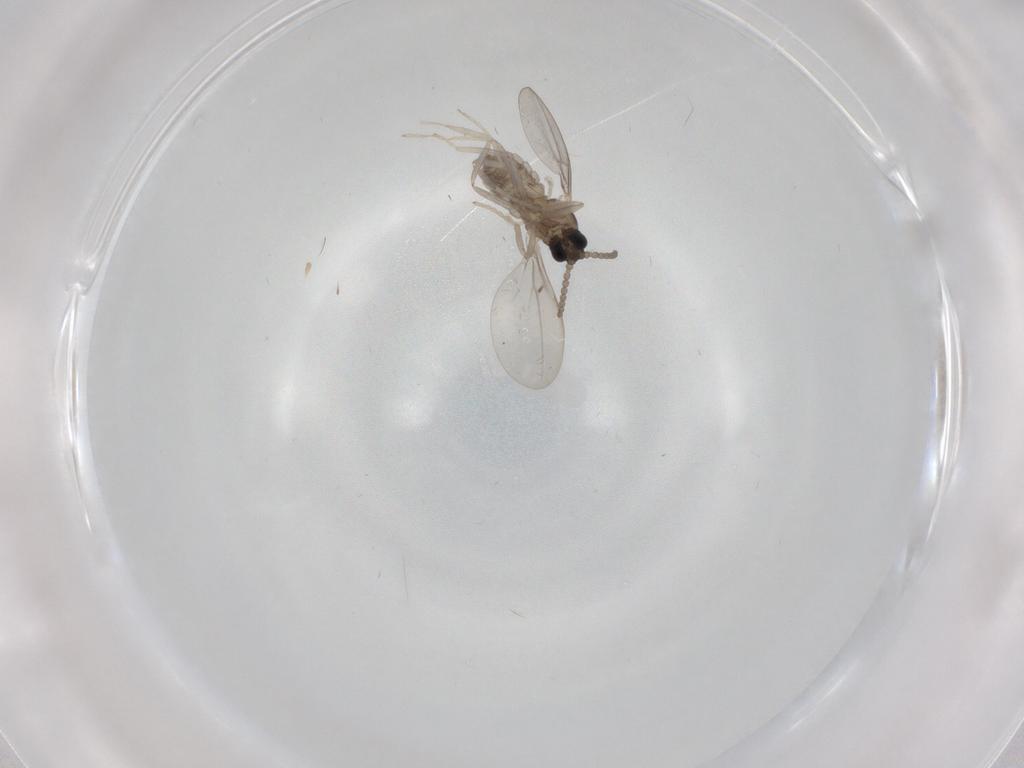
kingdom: Animalia
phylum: Arthropoda
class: Insecta
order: Diptera
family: Cecidomyiidae
